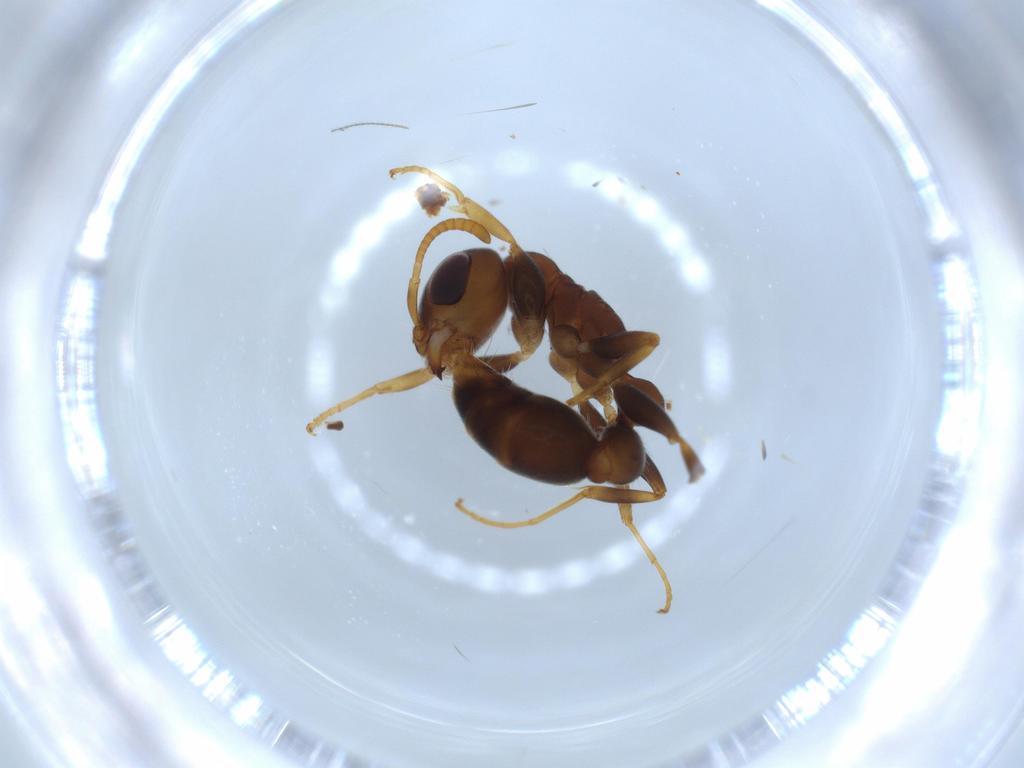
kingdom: Animalia
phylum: Arthropoda
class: Insecta
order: Hymenoptera
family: Formicidae
